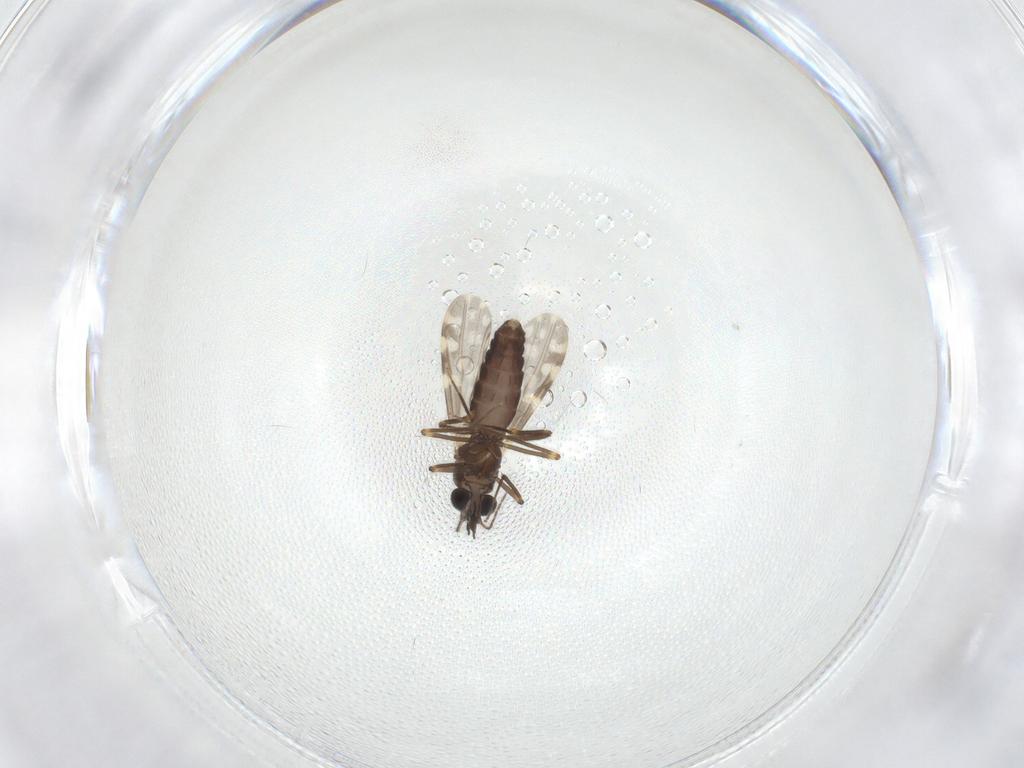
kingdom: Animalia
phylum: Arthropoda
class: Insecta
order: Diptera
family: Ceratopogonidae
